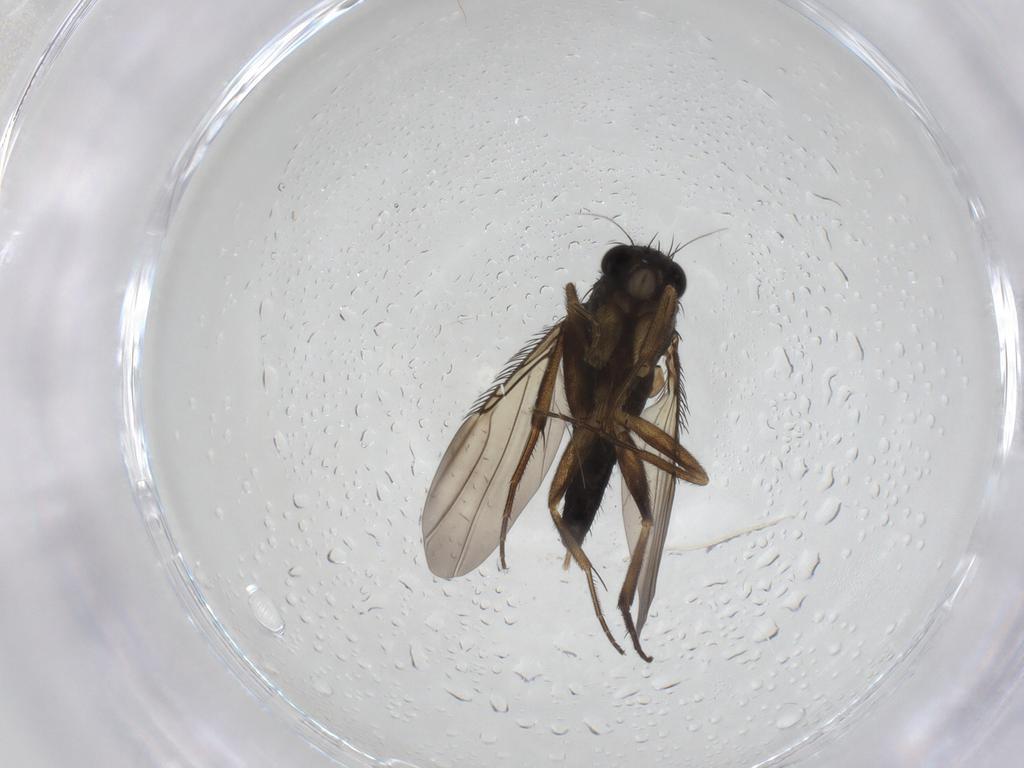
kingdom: Animalia
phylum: Arthropoda
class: Insecta
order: Diptera
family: Phoridae
